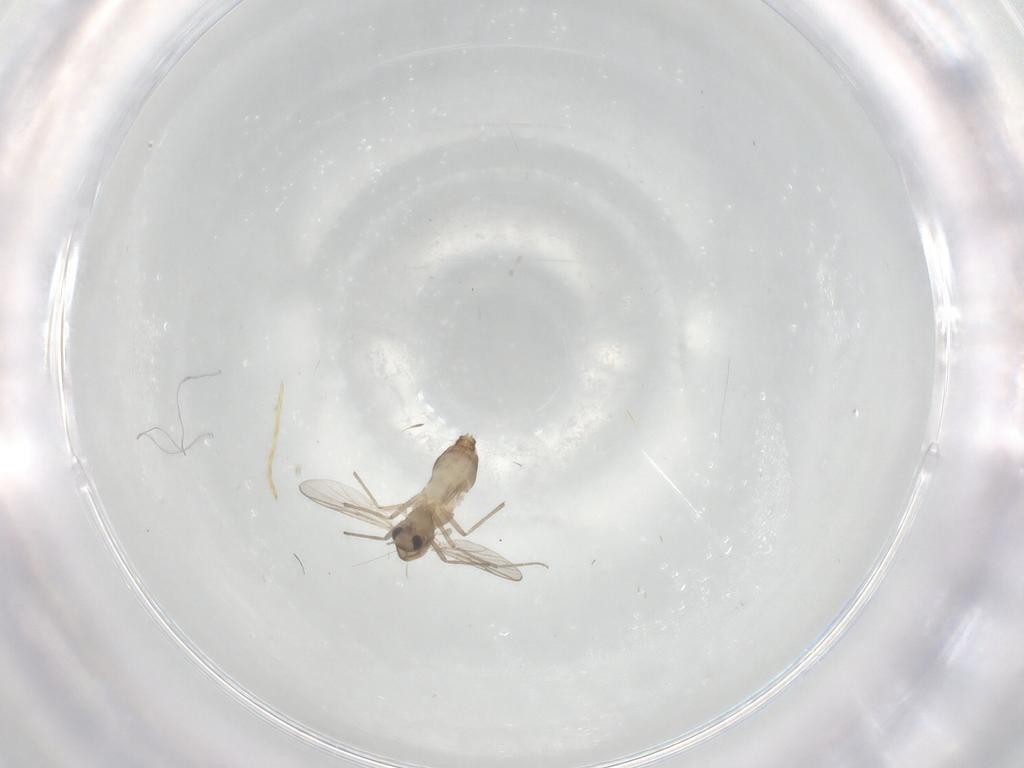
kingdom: Animalia
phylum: Arthropoda
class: Insecta
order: Diptera
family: Chironomidae
